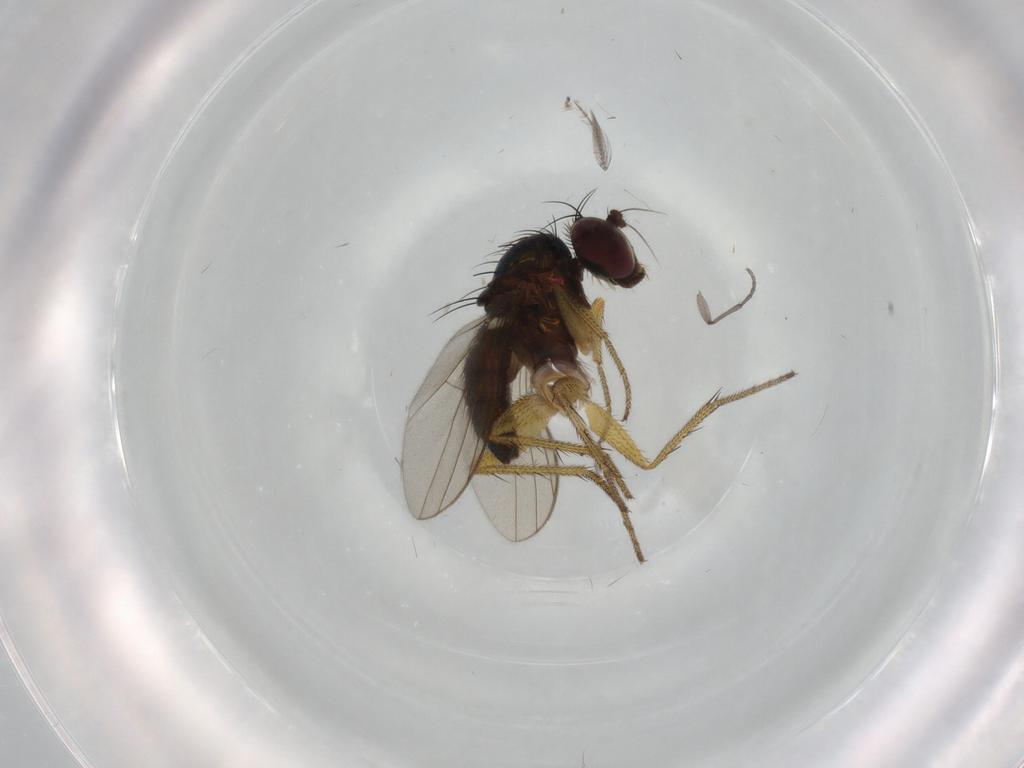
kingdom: Animalia
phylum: Arthropoda
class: Insecta
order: Diptera
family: Sciaridae
